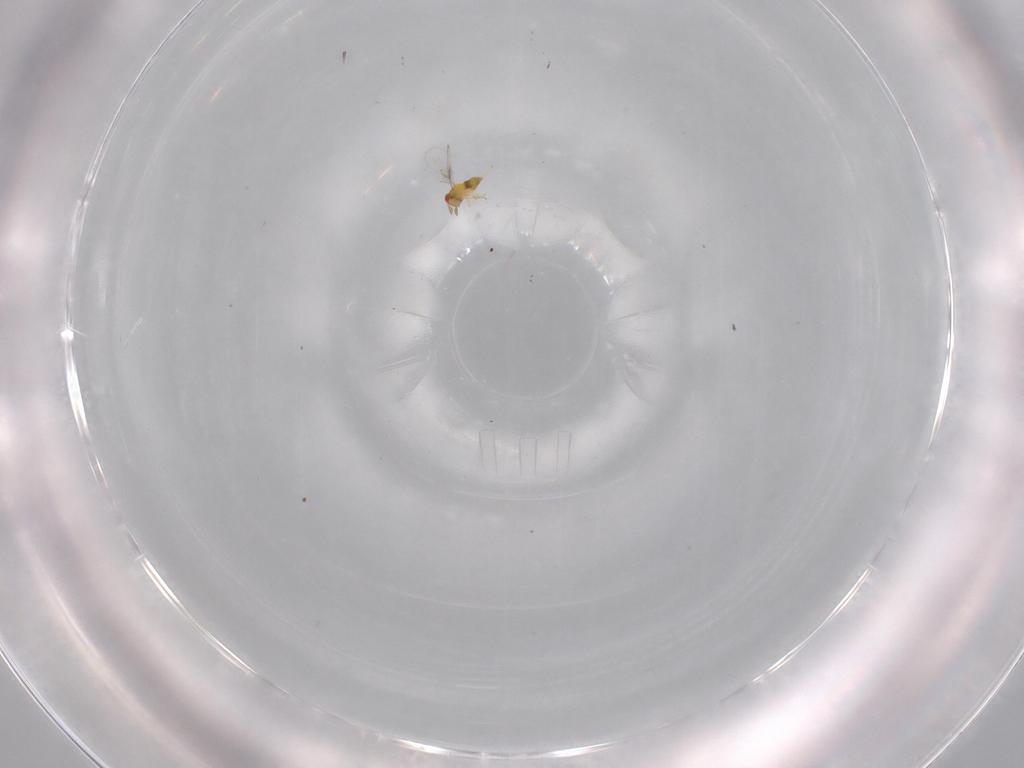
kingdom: Animalia
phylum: Arthropoda
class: Insecta
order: Hymenoptera
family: Trichogrammatidae
